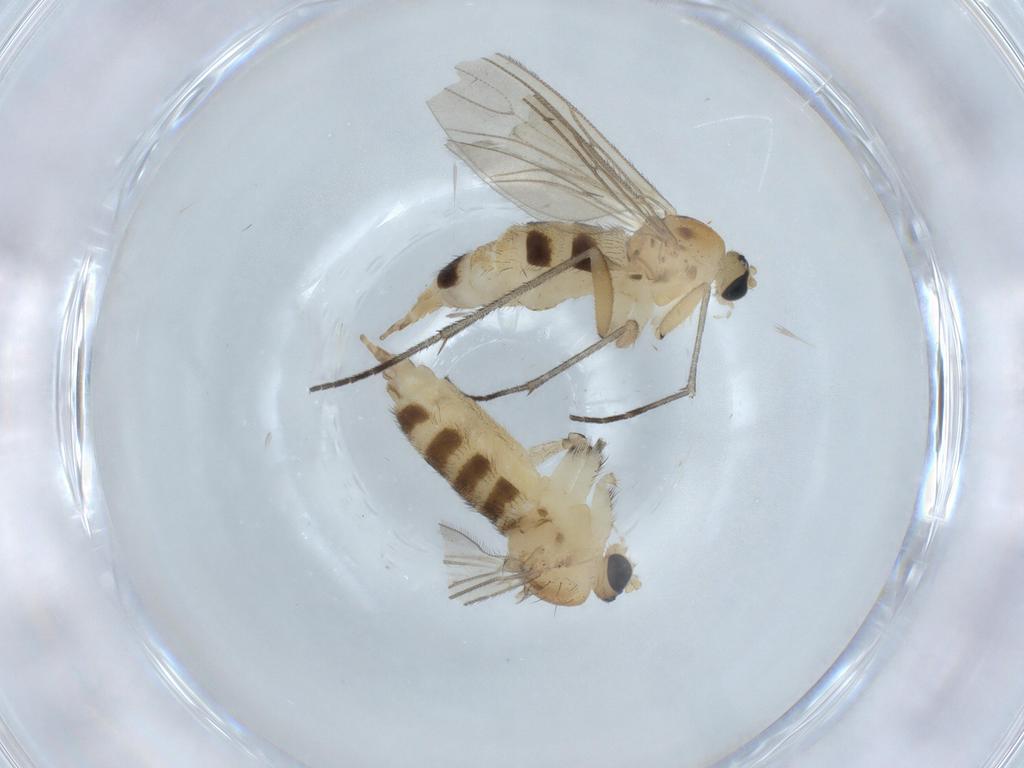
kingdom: Animalia
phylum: Arthropoda
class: Insecta
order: Diptera
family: Sciaridae
